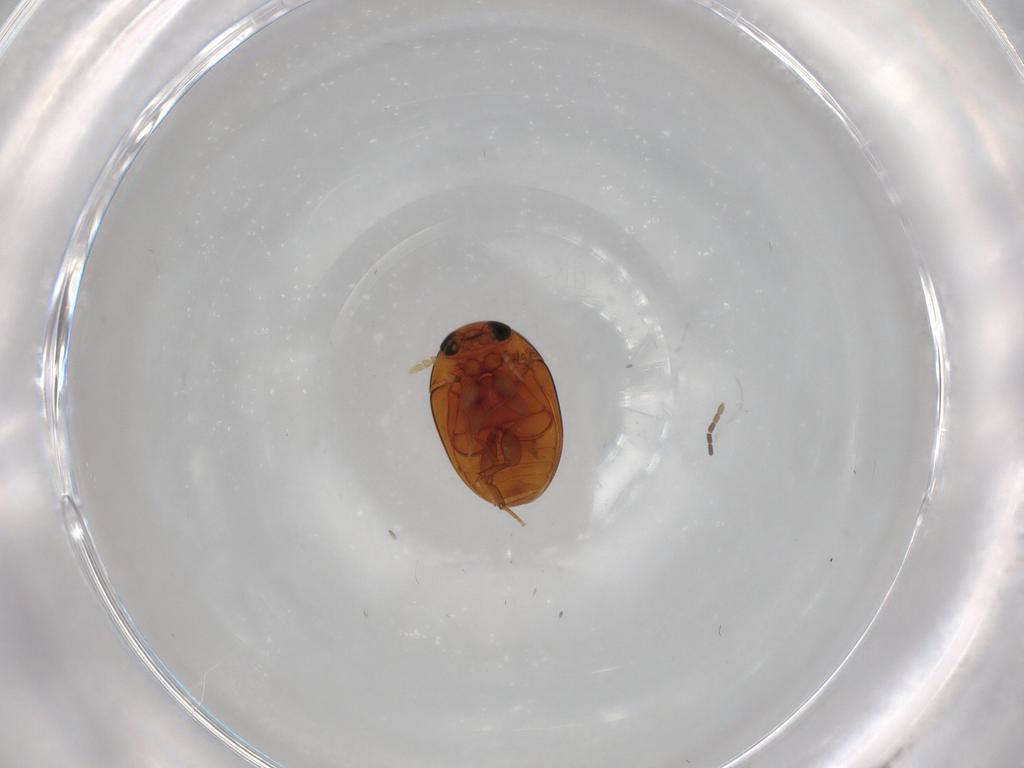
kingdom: Animalia
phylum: Arthropoda
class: Insecta
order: Coleoptera
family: Phalacridae
